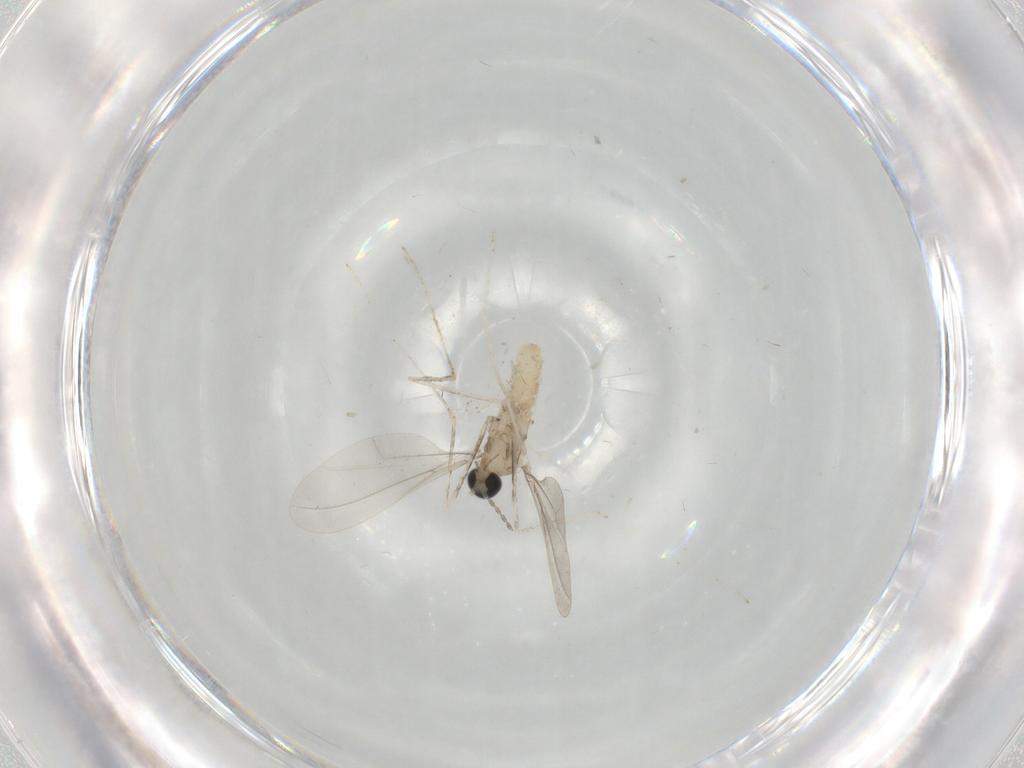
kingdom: Animalia
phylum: Arthropoda
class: Insecta
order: Diptera
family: Cecidomyiidae
